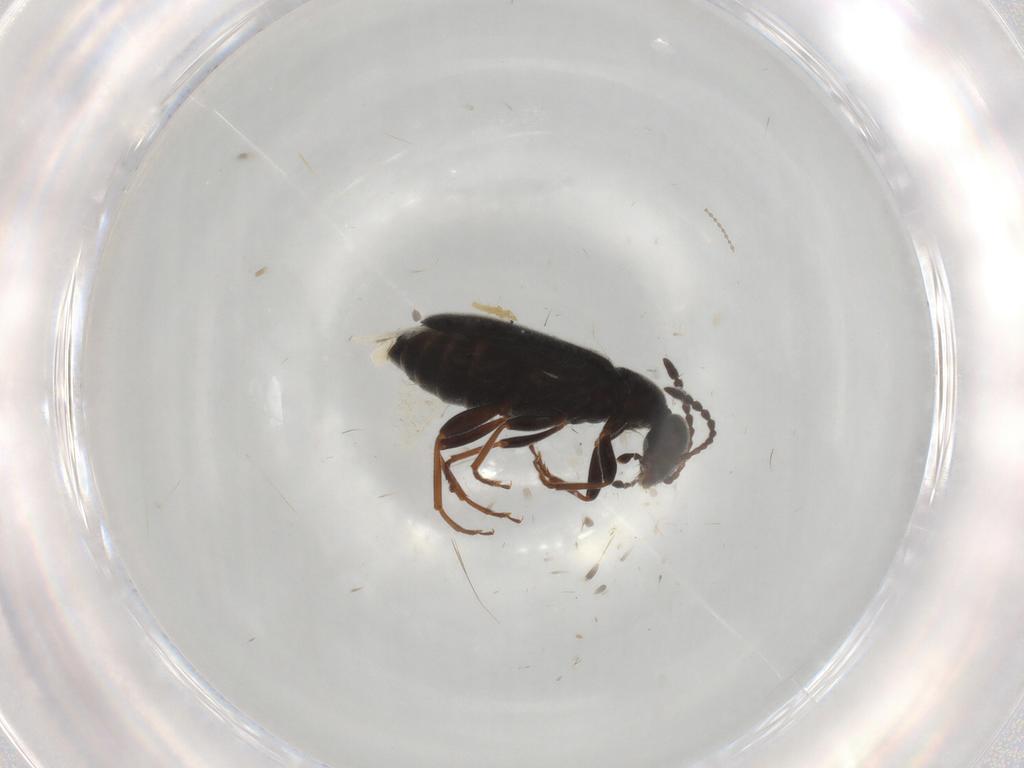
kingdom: Animalia
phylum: Arthropoda
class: Insecta
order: Coleoptera
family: Anthicidae
